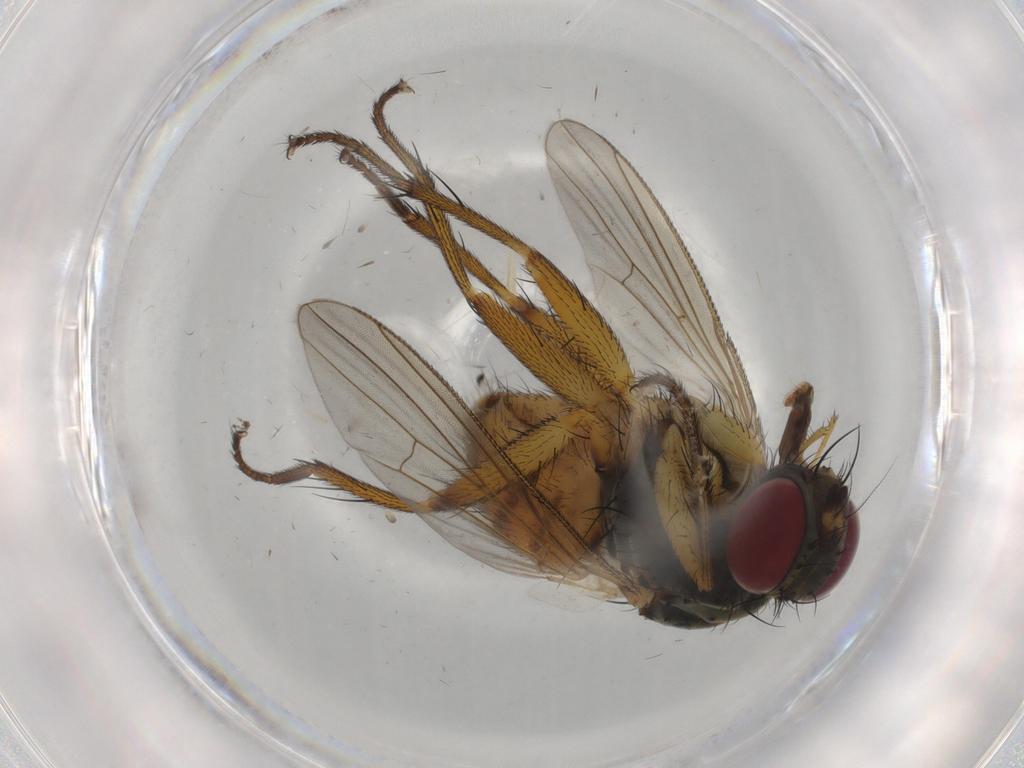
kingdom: Animalia
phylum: Arthropoda
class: Insecta
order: Diptera
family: Muscidae
